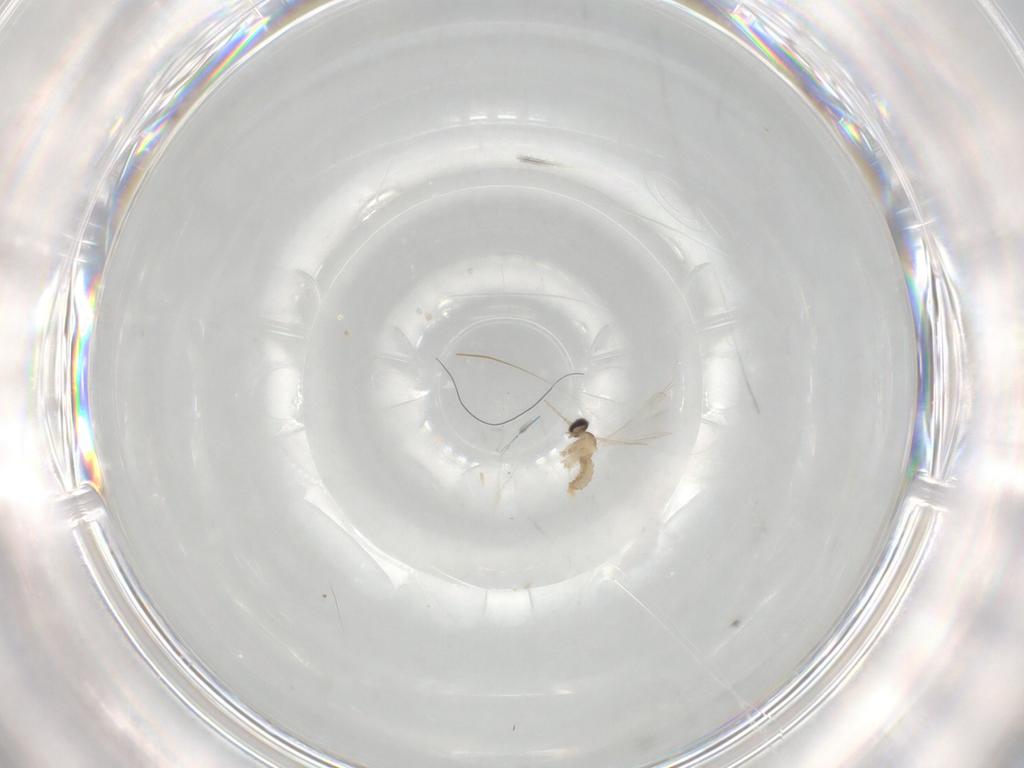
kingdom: Animalia
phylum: Arthropoda
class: Insecta
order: Diptera
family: Cecidomyiidae
